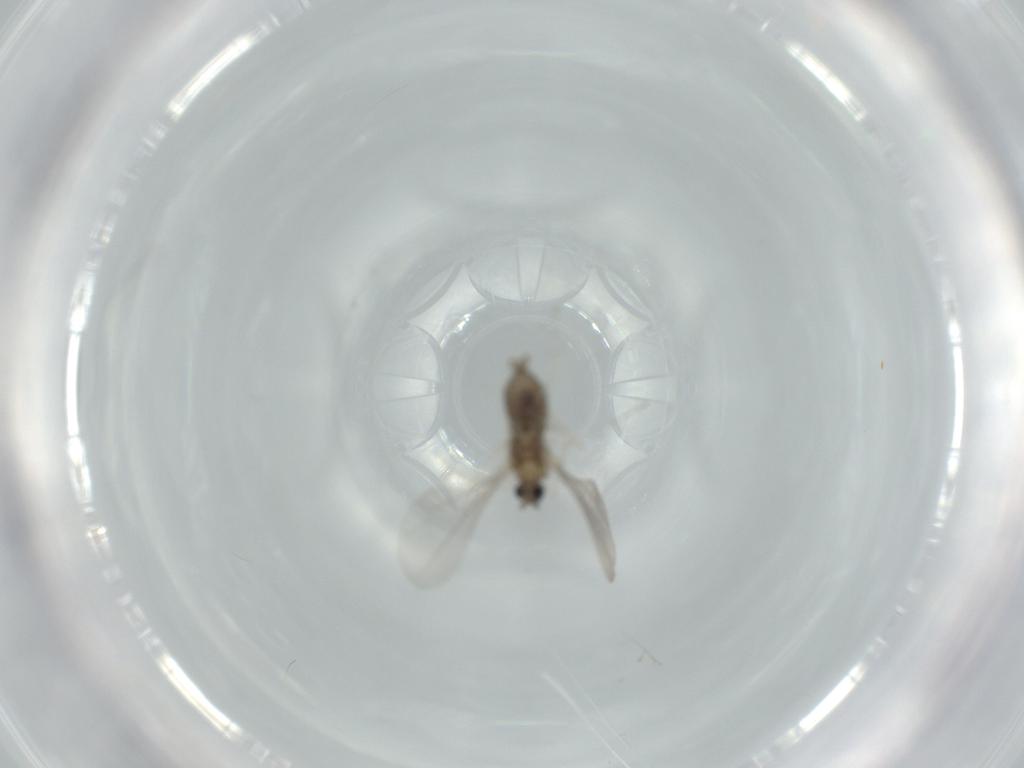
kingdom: Animalia
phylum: Arthropoda
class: Insecta
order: Diptera
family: Cecidomyiidae
